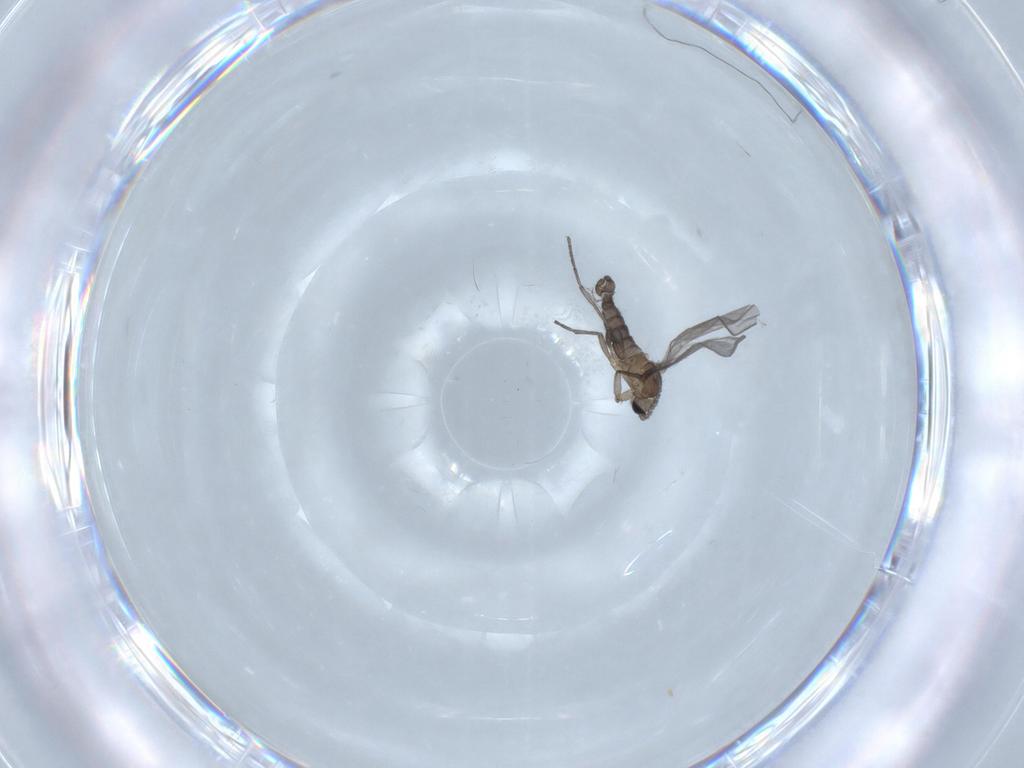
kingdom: Animalia
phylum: Arthropoda
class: Insecta
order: Diptera
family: Sciaridae
